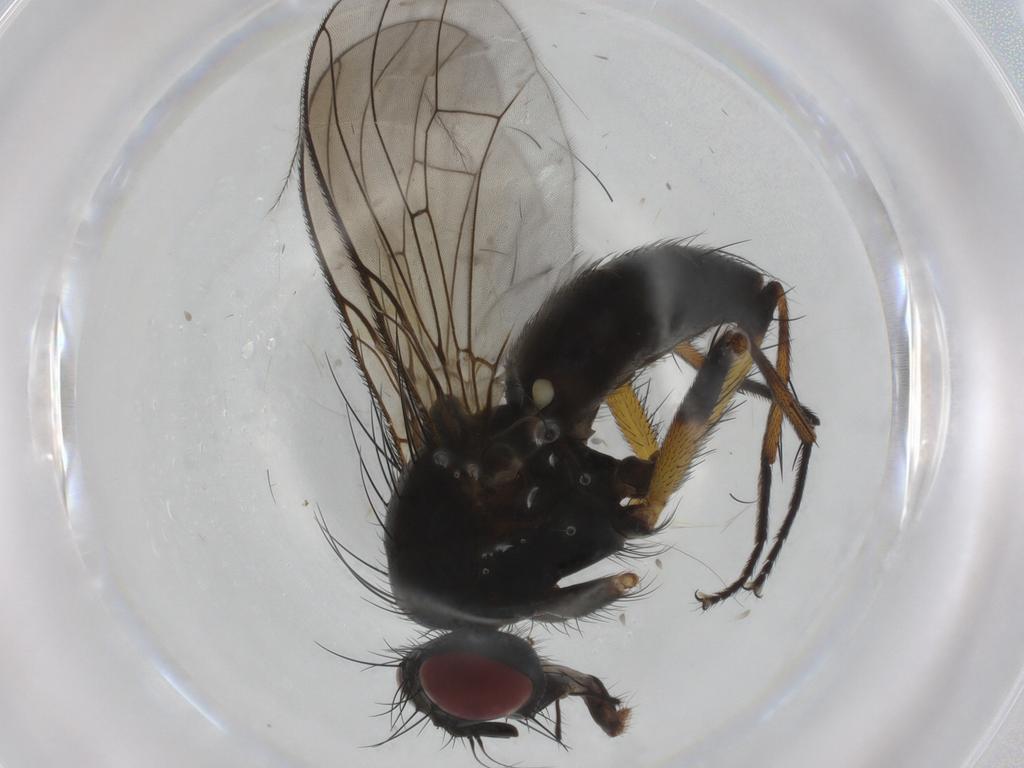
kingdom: Animalia
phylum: Arthropoda
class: Insecta
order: Diptera
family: Muscidae
